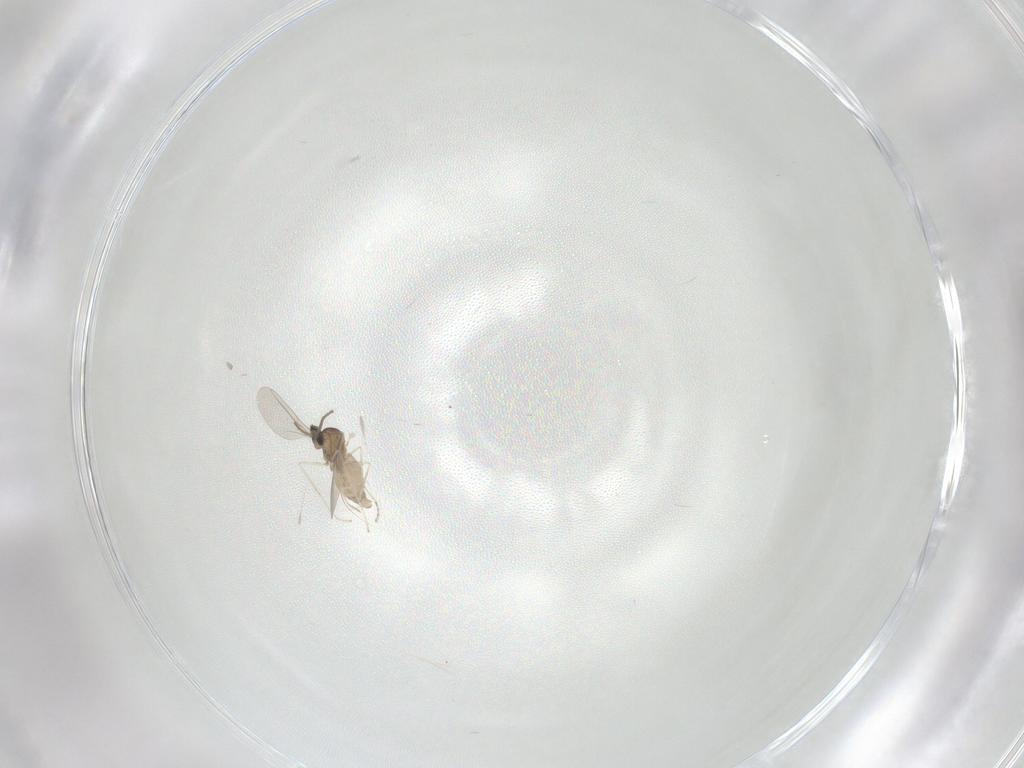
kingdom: Animalia
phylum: Arthropoda
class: Insecta
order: Diptera
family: Cecidomyiidae
